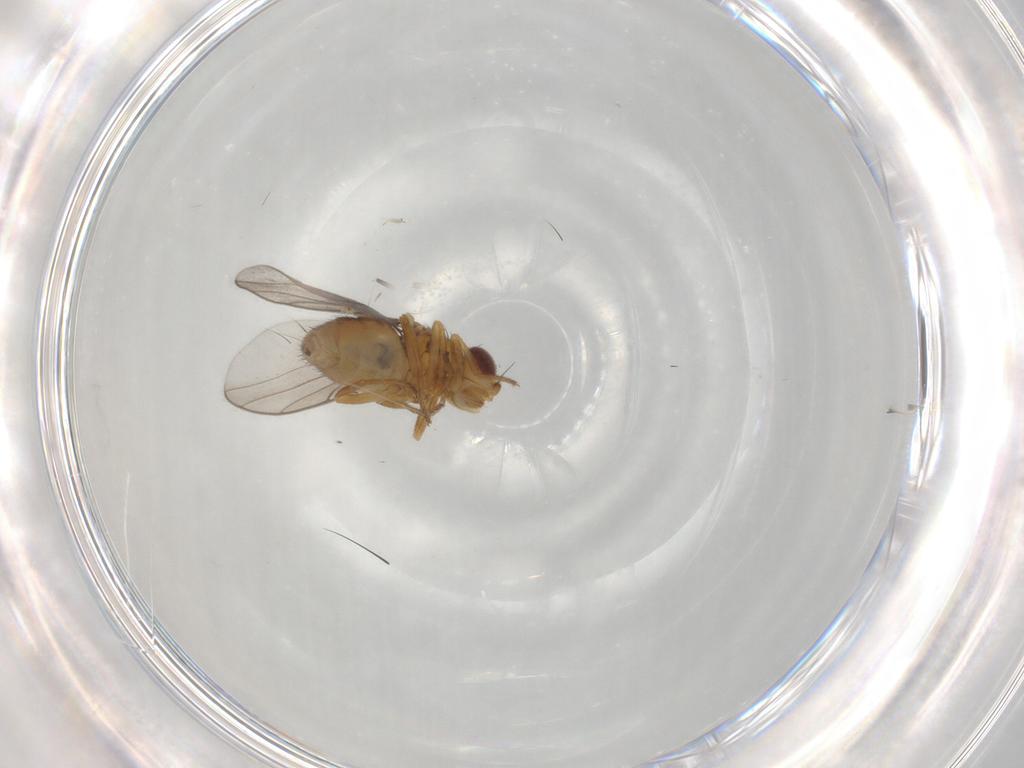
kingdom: Animalia
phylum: Arthropoda
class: Insecta
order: Diptera
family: Chloropidae
